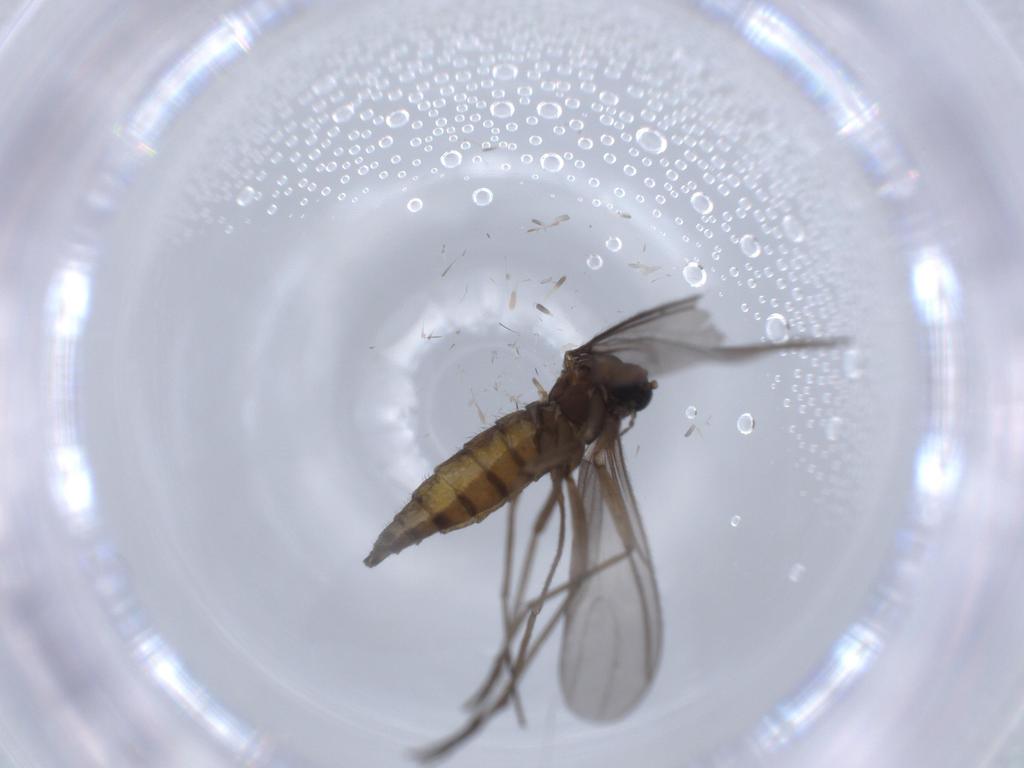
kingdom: Animalia
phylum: Arthropoda
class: Insecta
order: Diptera
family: Sciaridae
